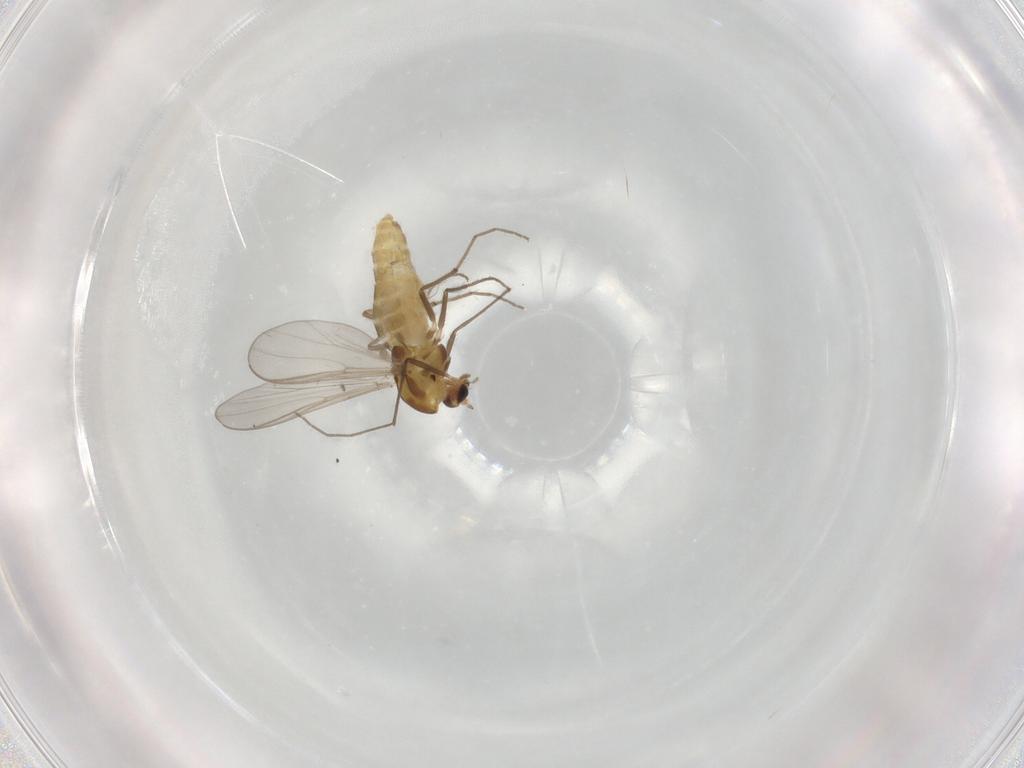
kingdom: Animalia
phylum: Arthropoda
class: Insecta
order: Diptera
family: Chironomidae
